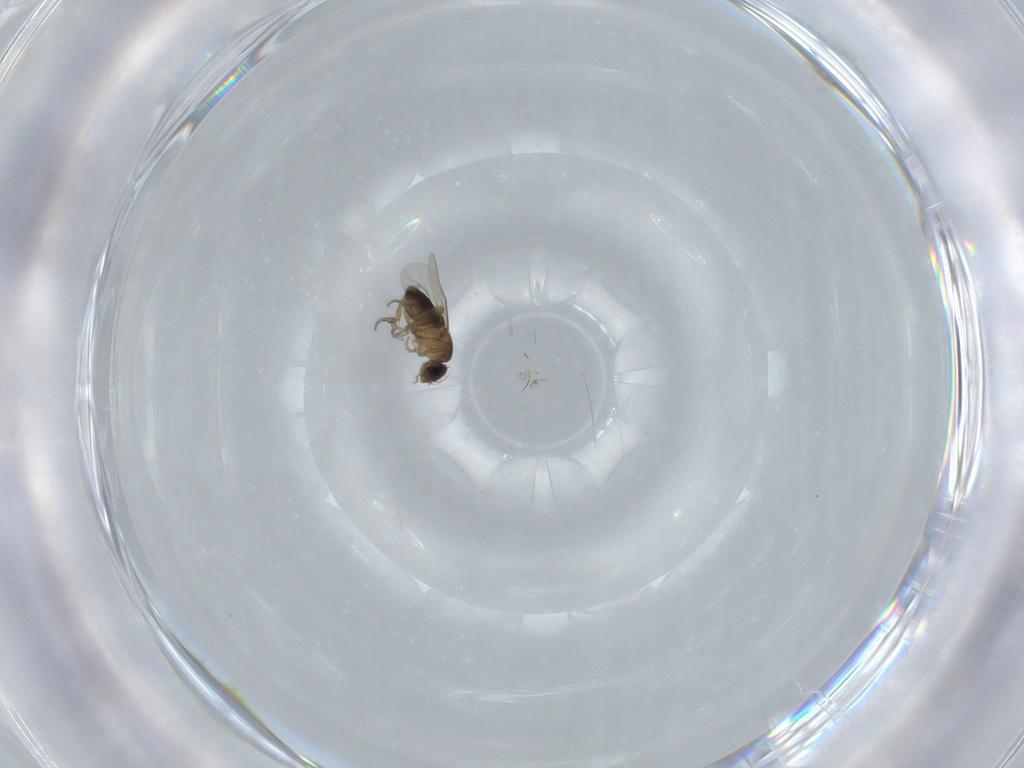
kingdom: Animalia
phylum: Arthropoda
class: Insecta
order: Diptera
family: Phoridae
